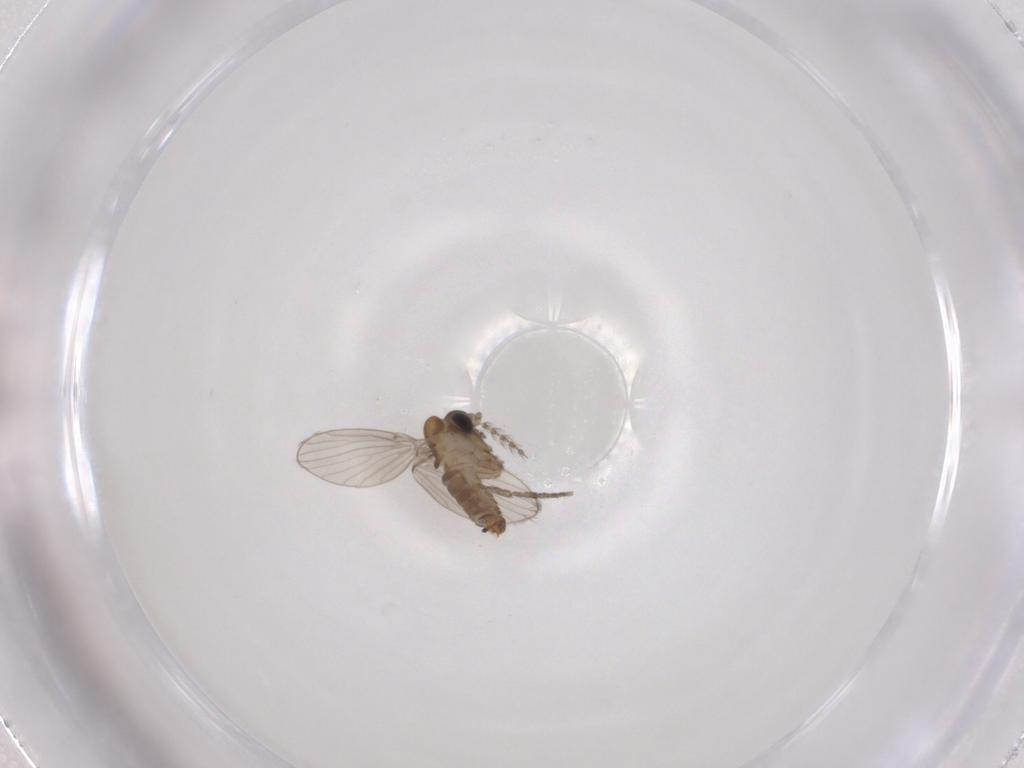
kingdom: Animalia
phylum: Arthropoda
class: Insecta
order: Diptera
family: Psychodidae
